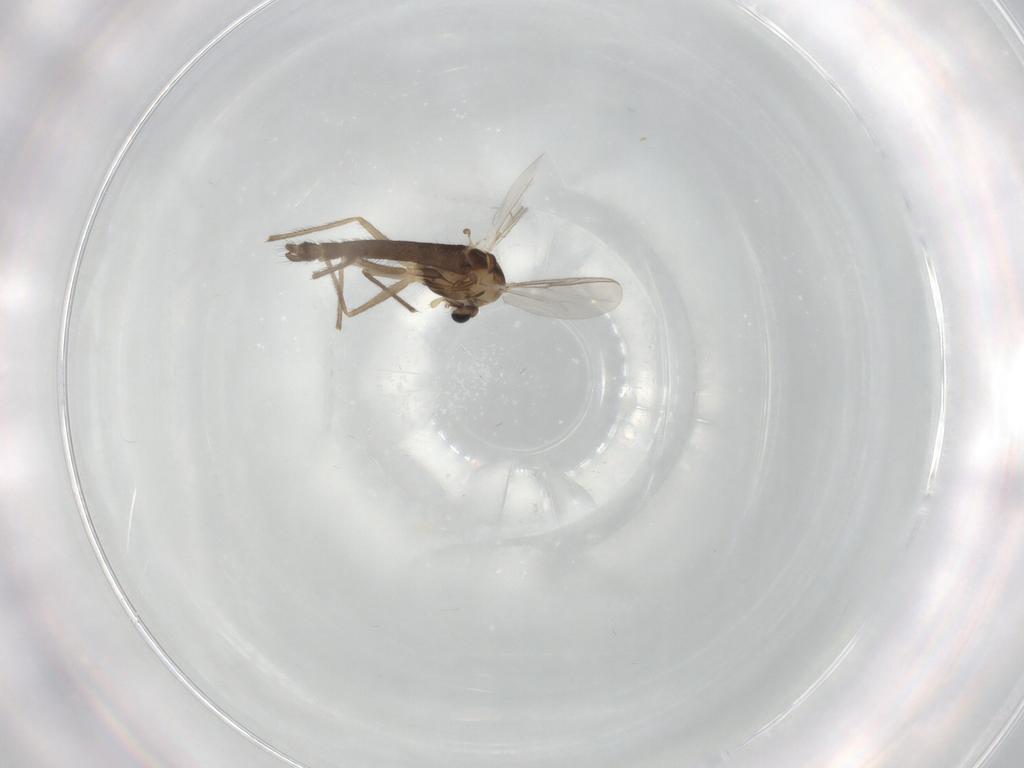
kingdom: Animalia
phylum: Arthropoda
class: Insecta
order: Diptera
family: Chironomidae
